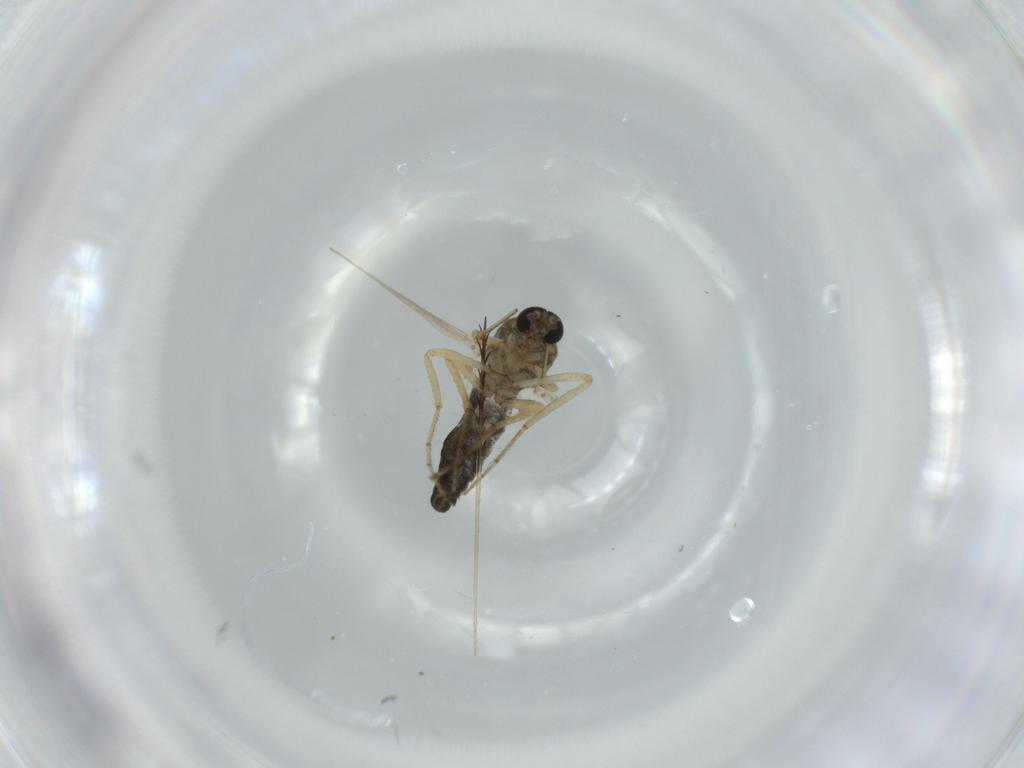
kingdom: Animalia
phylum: Arthropoda
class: Insecta
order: Diptera
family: Ceratopogonidae
